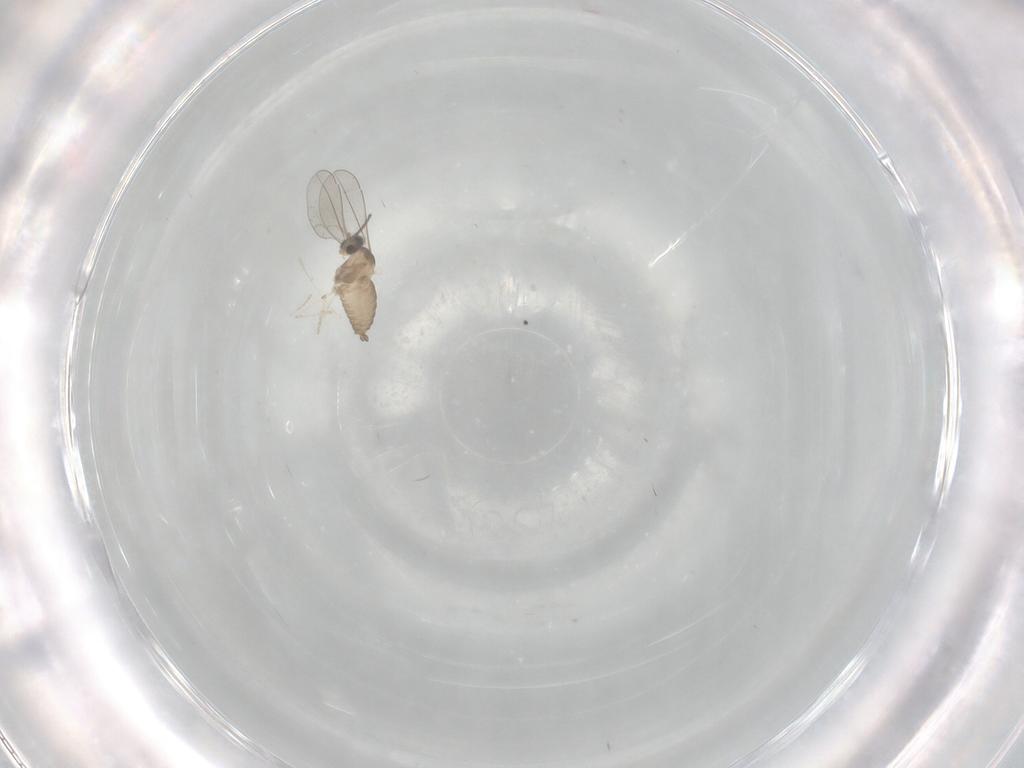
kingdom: Animalia
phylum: Arthropoda
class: Insecta
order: Diptera
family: Cecidomyiidae
